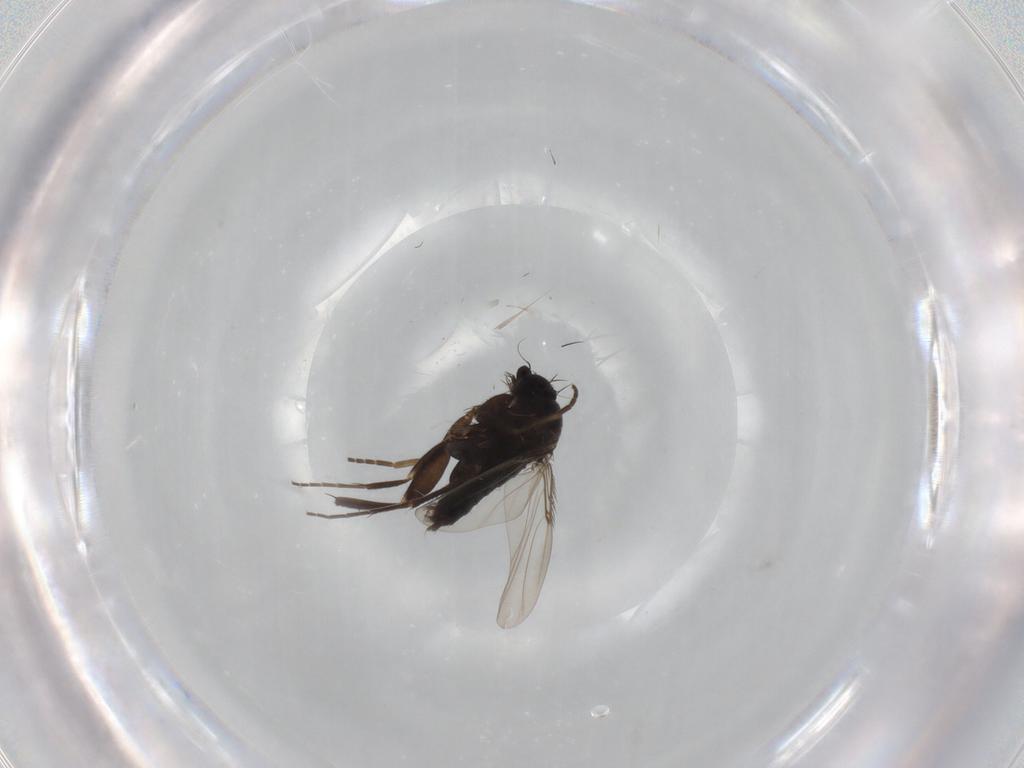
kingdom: Animalia
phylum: Arthropoda
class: Insecta
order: Diptera
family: Phoridae
